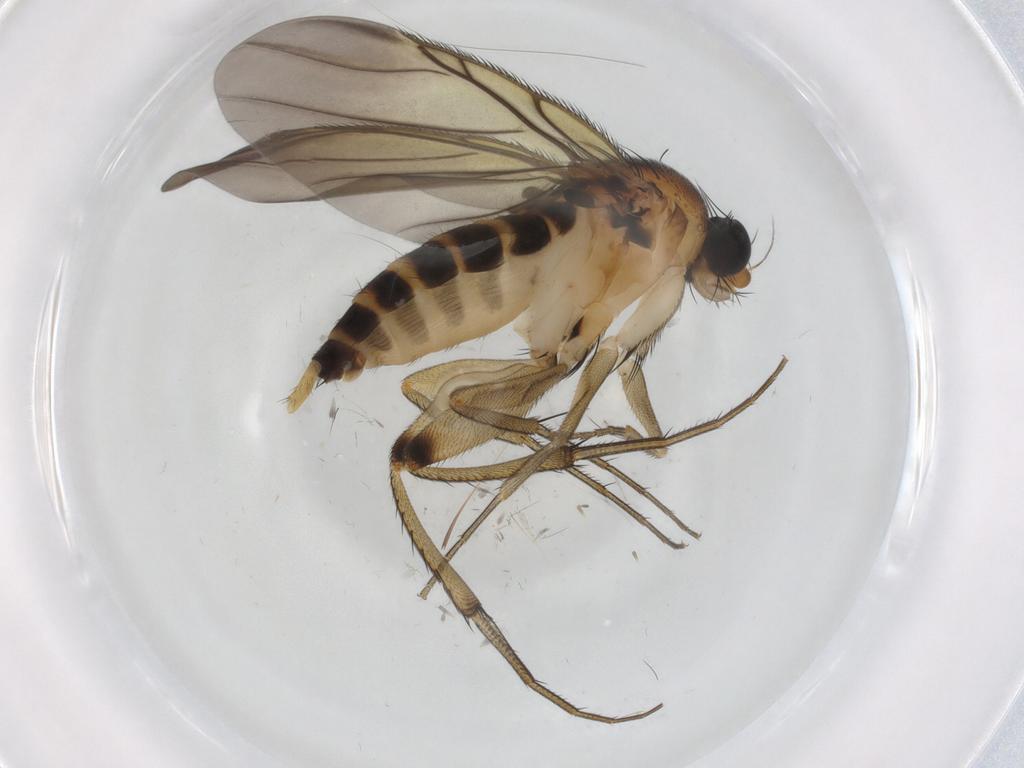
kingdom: Animalia
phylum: Arthropoda
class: Insecta
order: Diptera
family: Phoridae
